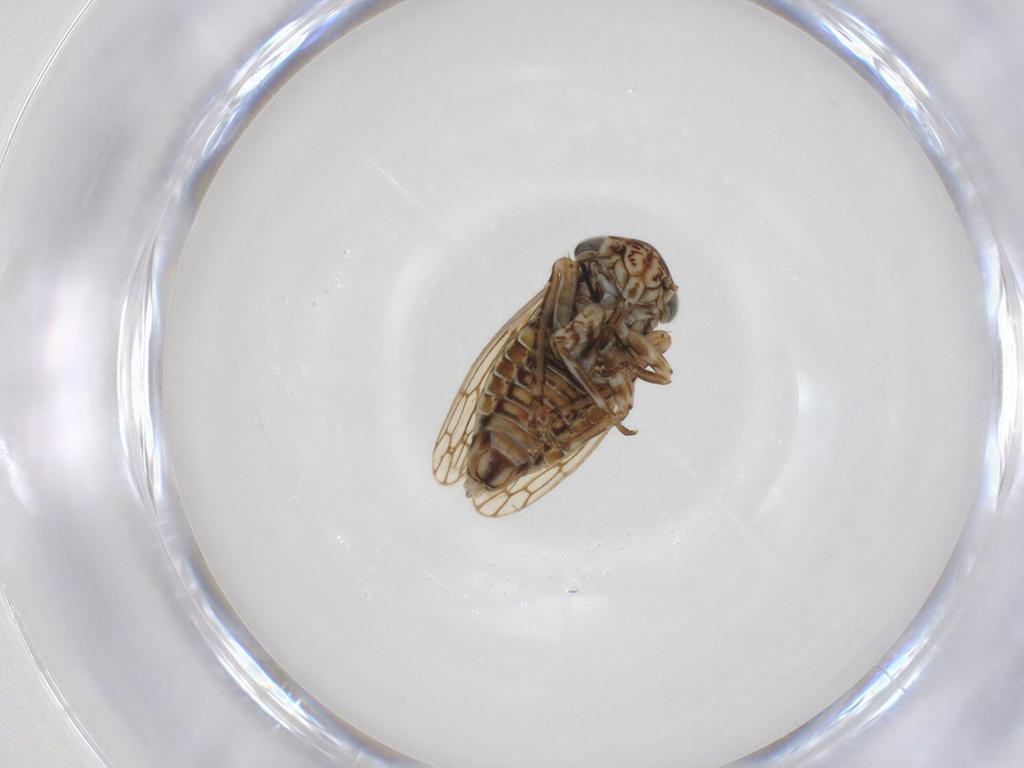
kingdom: Animalia
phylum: Arthropoda
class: Insecta
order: Hemiptera
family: Cicadellidae
